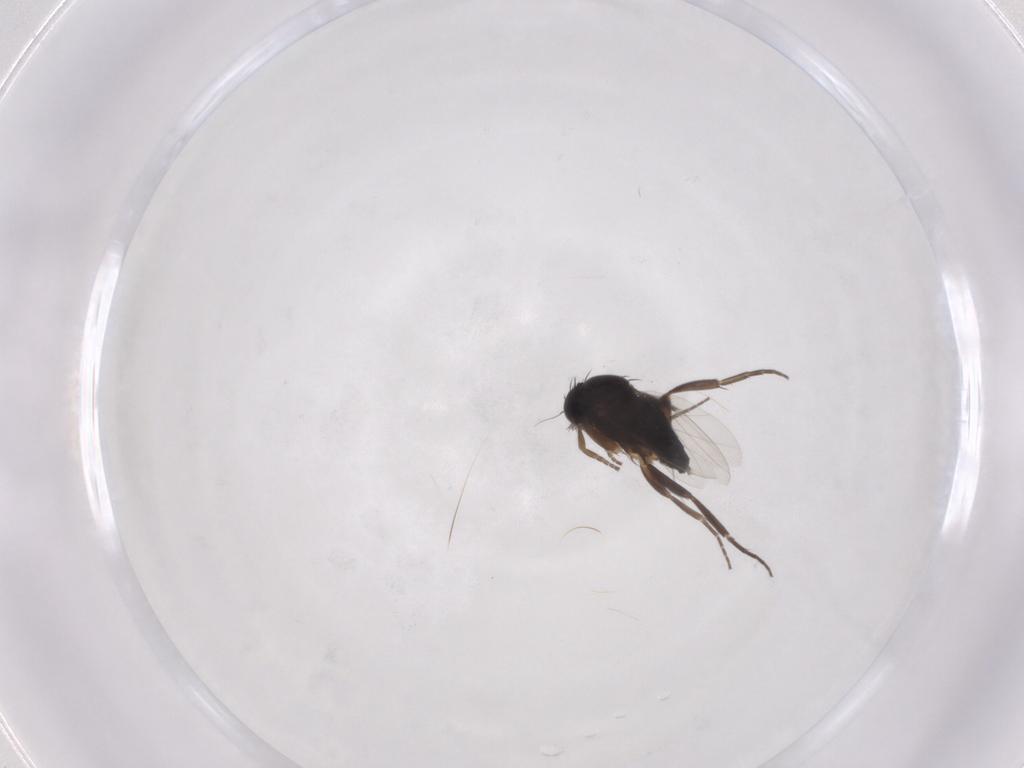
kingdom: Animalia
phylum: Arthropoda
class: Insecta
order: Diptera
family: Phoridae
